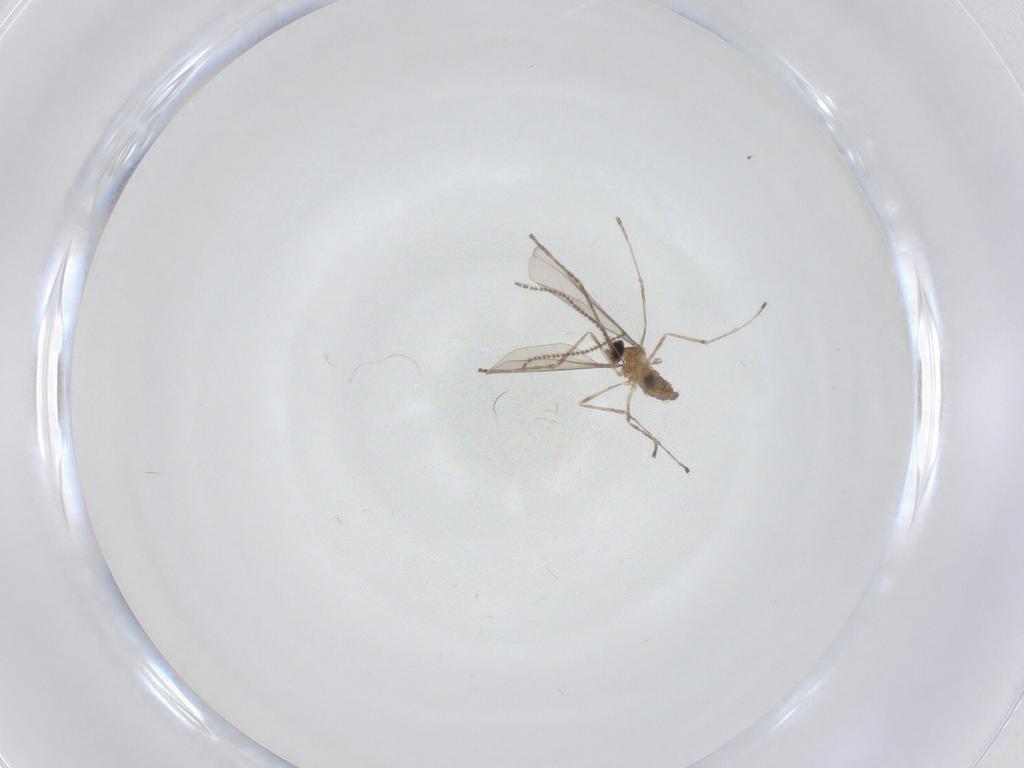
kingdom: Animalia
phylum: Arthropoda
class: Insecta
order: Diptera
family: Cecidomyiidae
